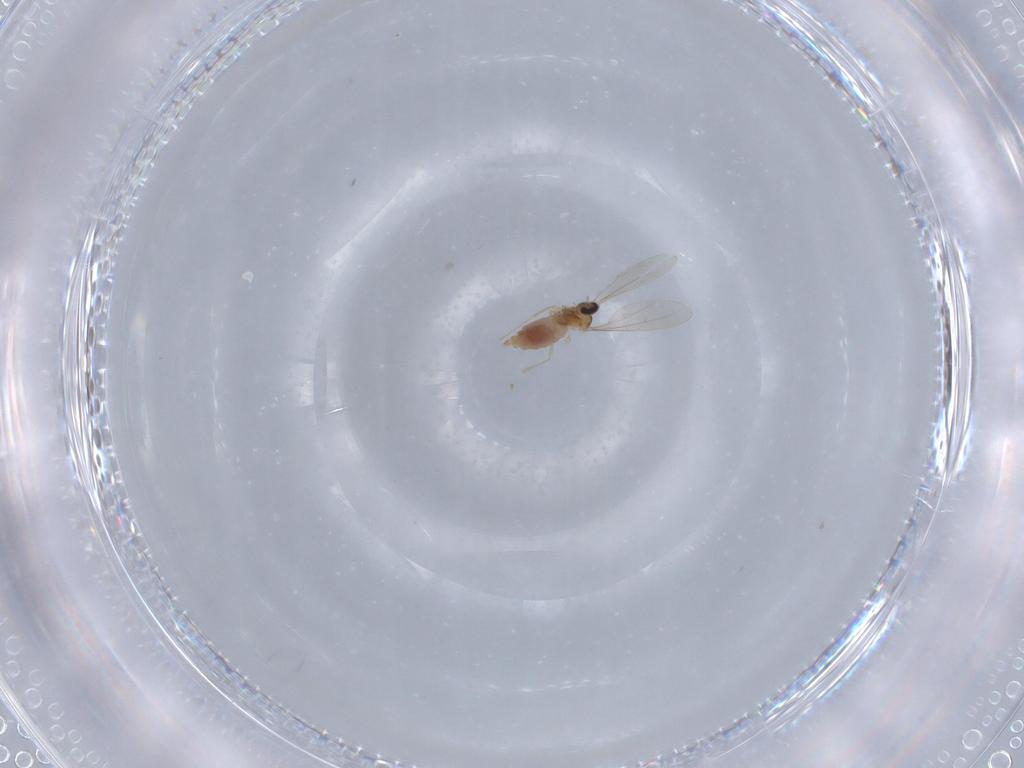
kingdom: Animalia
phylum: Arthropoda
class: Insecta
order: Diptera
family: Cecidomyiidae
